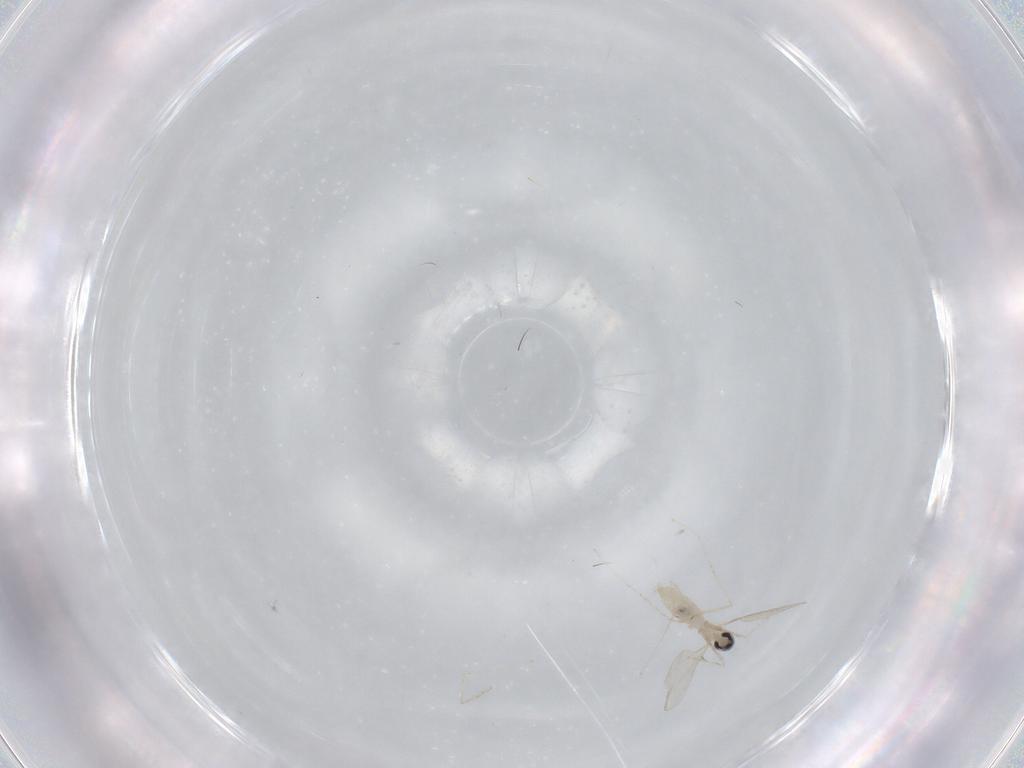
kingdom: Animalia
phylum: Arthropoda
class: Insecta
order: Diptera
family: Cecidomyiidae
